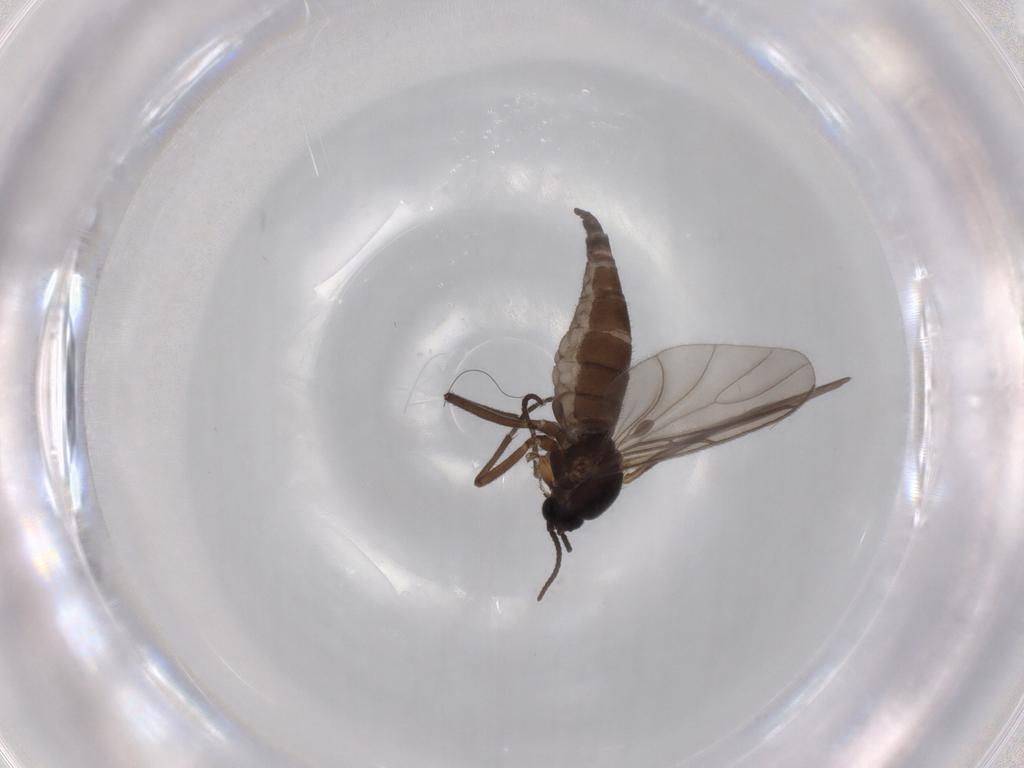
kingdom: Animalia
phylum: Arthropoda
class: Insecta
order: Diptera
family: Sciaridae
